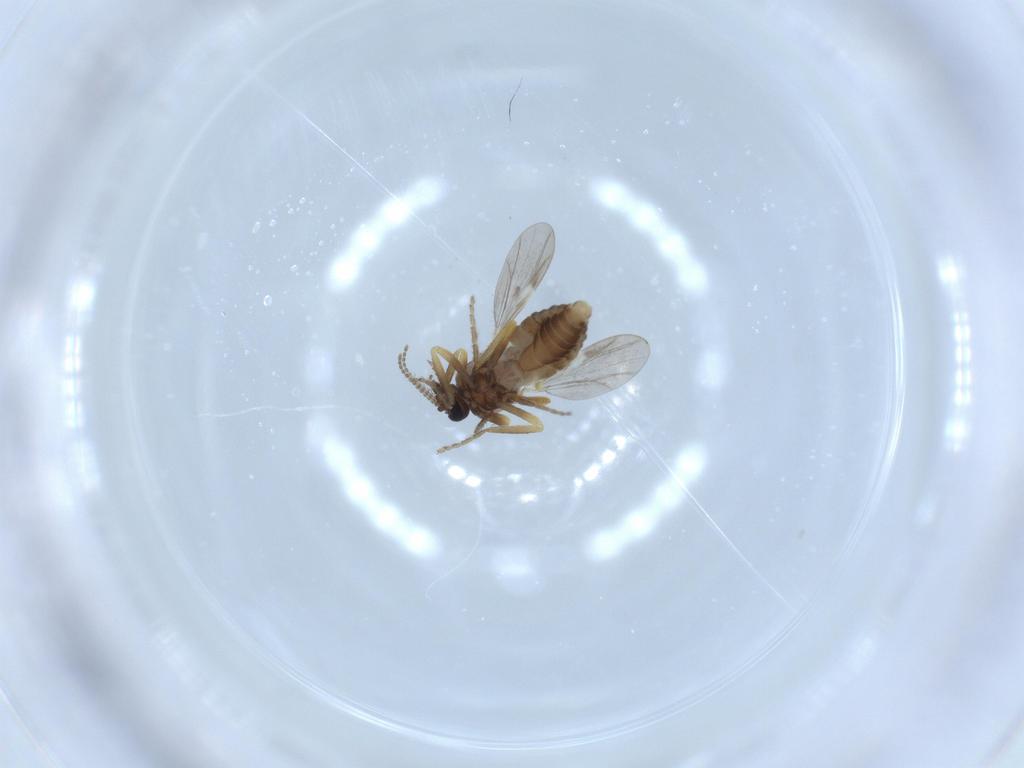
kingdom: Animalia
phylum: Arthropoda
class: Insecta
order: Diptera
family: Ceratopogonidae
